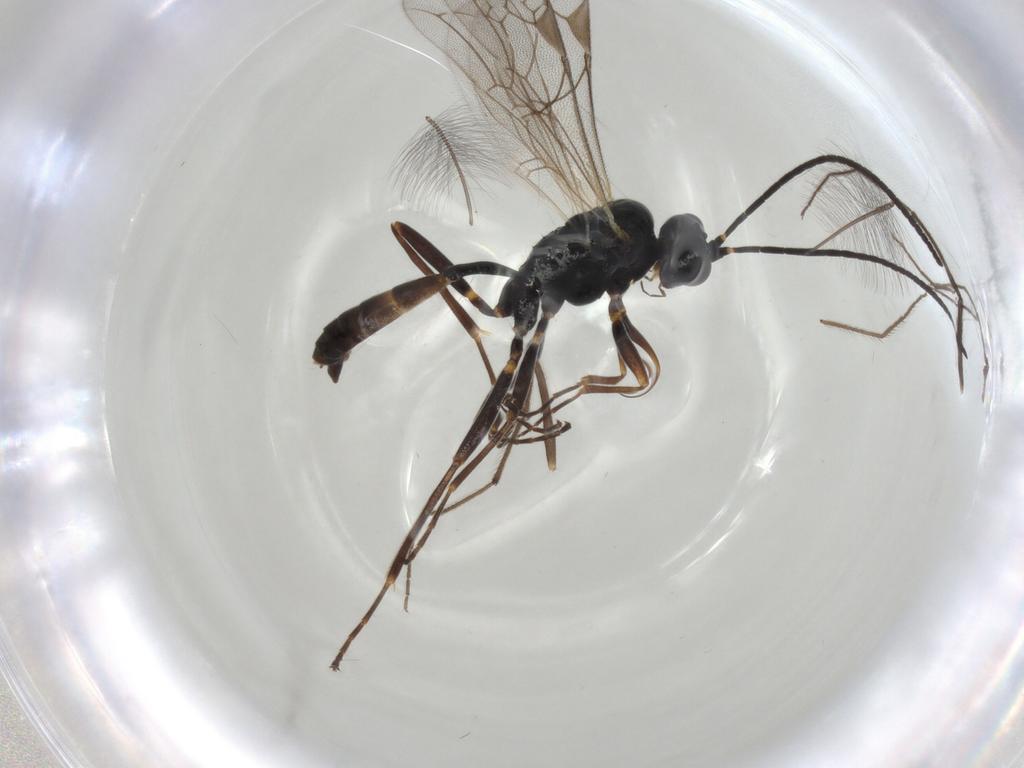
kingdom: Animalia
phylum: Arthropoda
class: Insecta
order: Hymenoptera
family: Ichneumonidae
